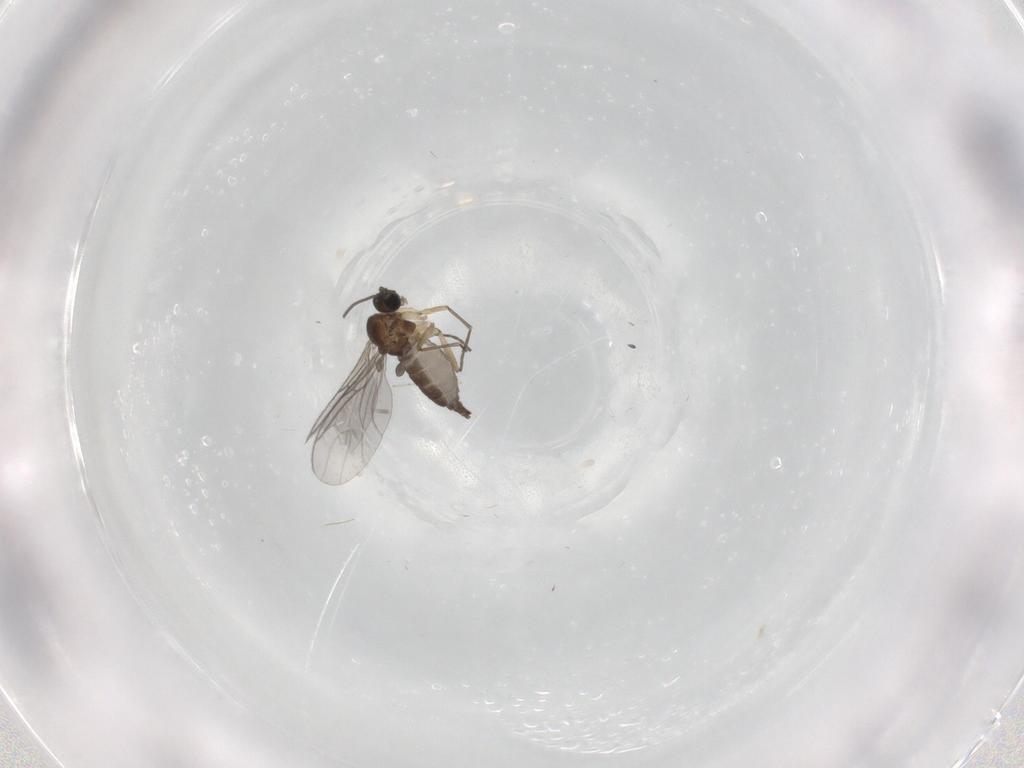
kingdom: Animalia
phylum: Arthropoda
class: Insecta
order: Diptera
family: Sciaridae
